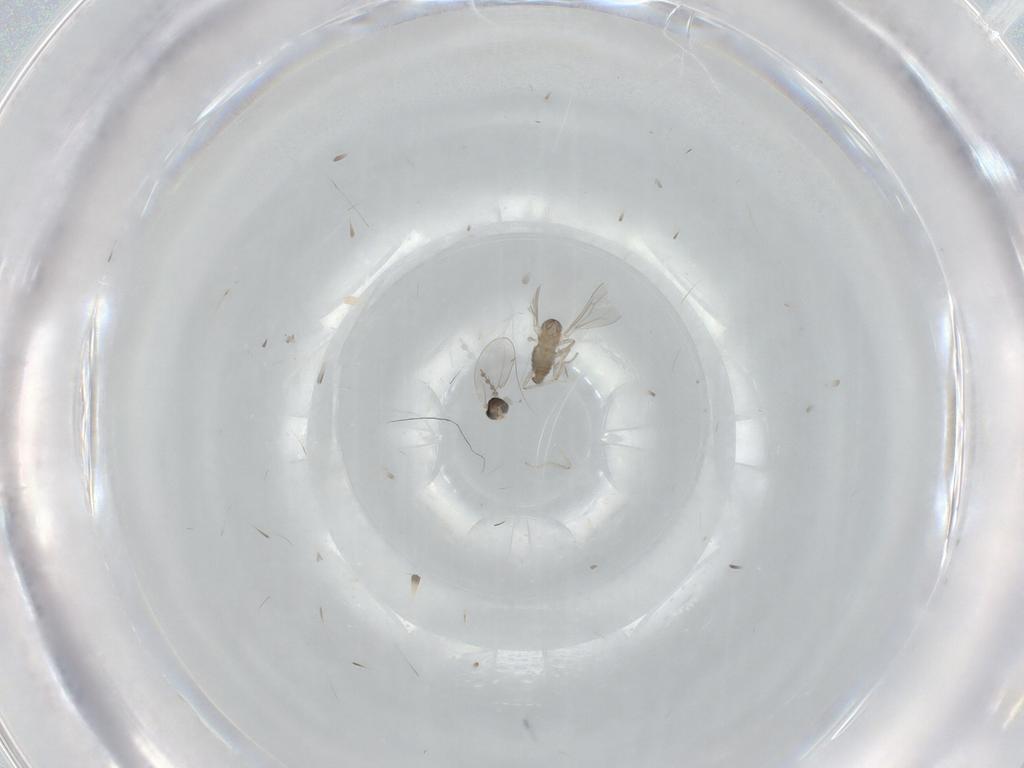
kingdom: Animalia
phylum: Arthropoda
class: Insecta
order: Diptera
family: Cecidomyiidae
